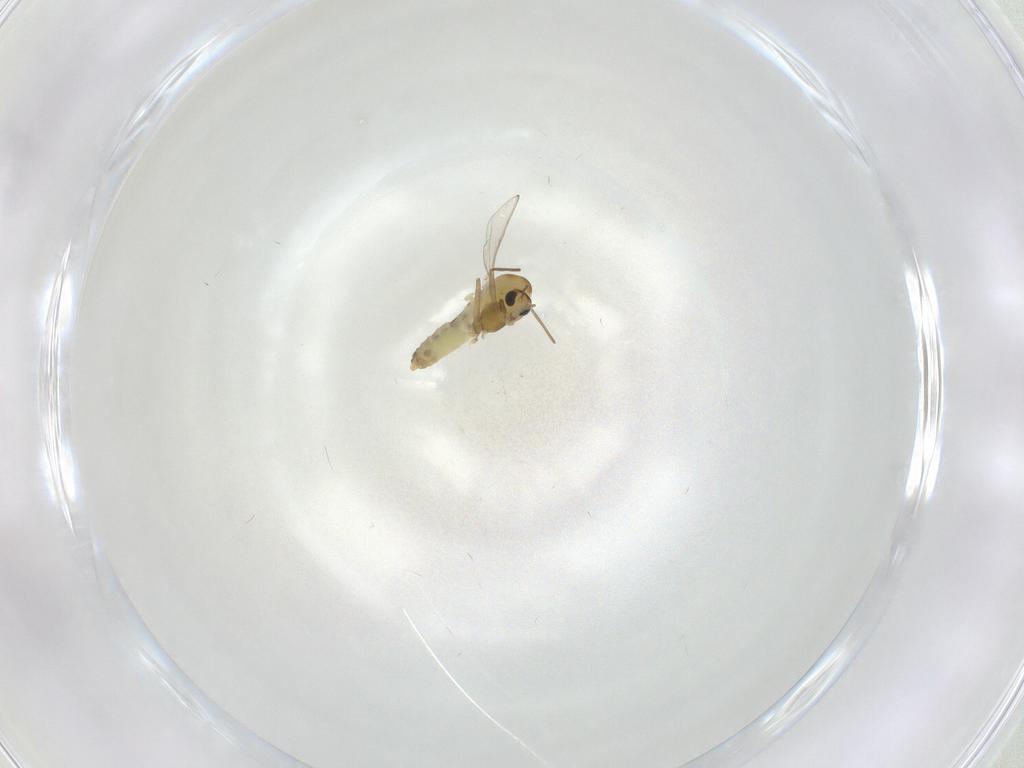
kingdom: Animalia
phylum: Arthropoda
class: Insecta
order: Diptera
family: Chironomidae
